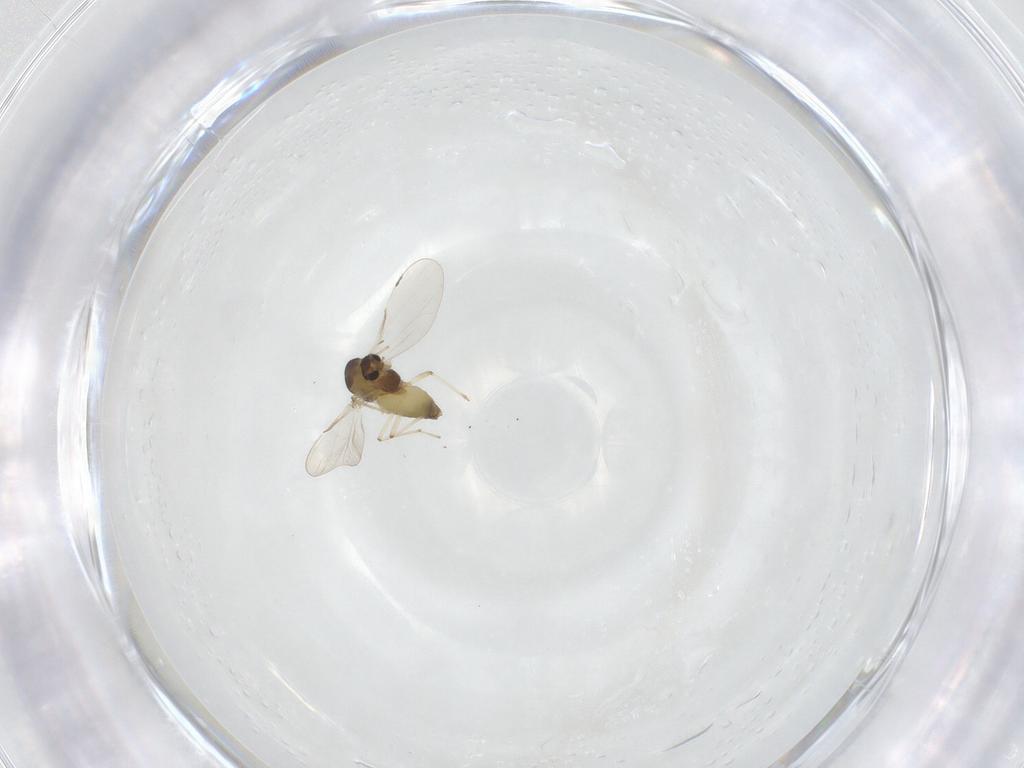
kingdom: Animalia
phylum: Arthropoda
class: Insecta
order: Diptera
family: Chironomidae
